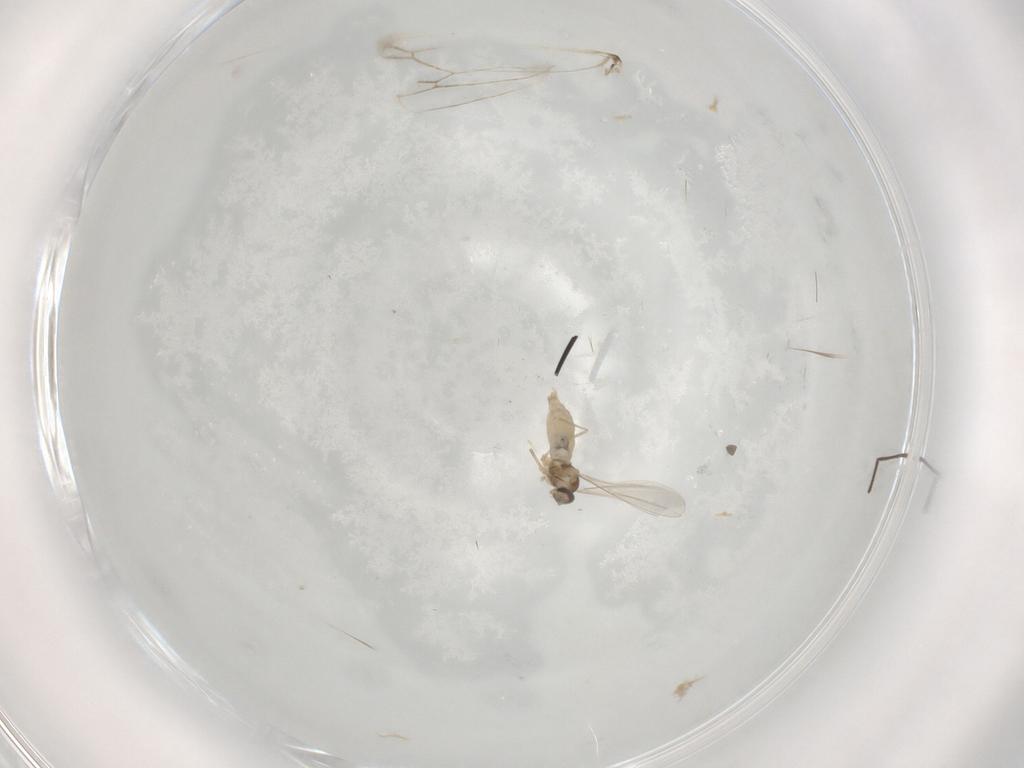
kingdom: Animalia
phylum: Arthropoda
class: Insecta
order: Diptera
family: Cecidomyiidae
